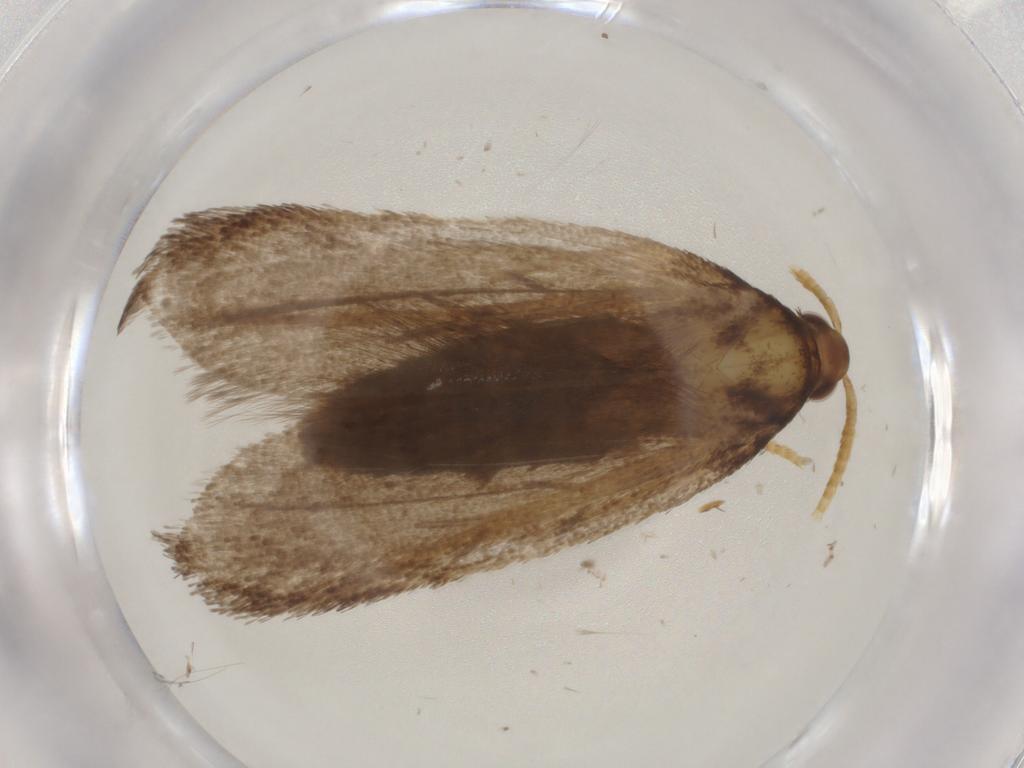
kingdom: Animalia
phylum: Arthropoda
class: Insecta
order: Lepidoptera
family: Lecithoceridae
